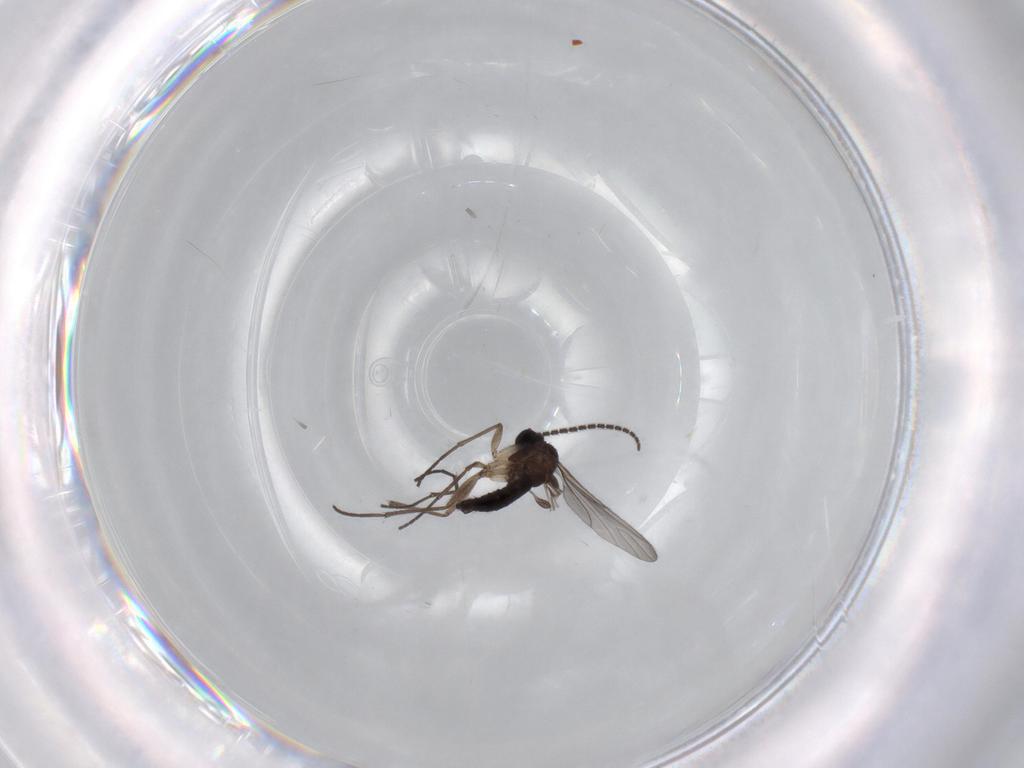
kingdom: Animalia
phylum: Arthropoda
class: Insecta
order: Diptera
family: Sciaridae
